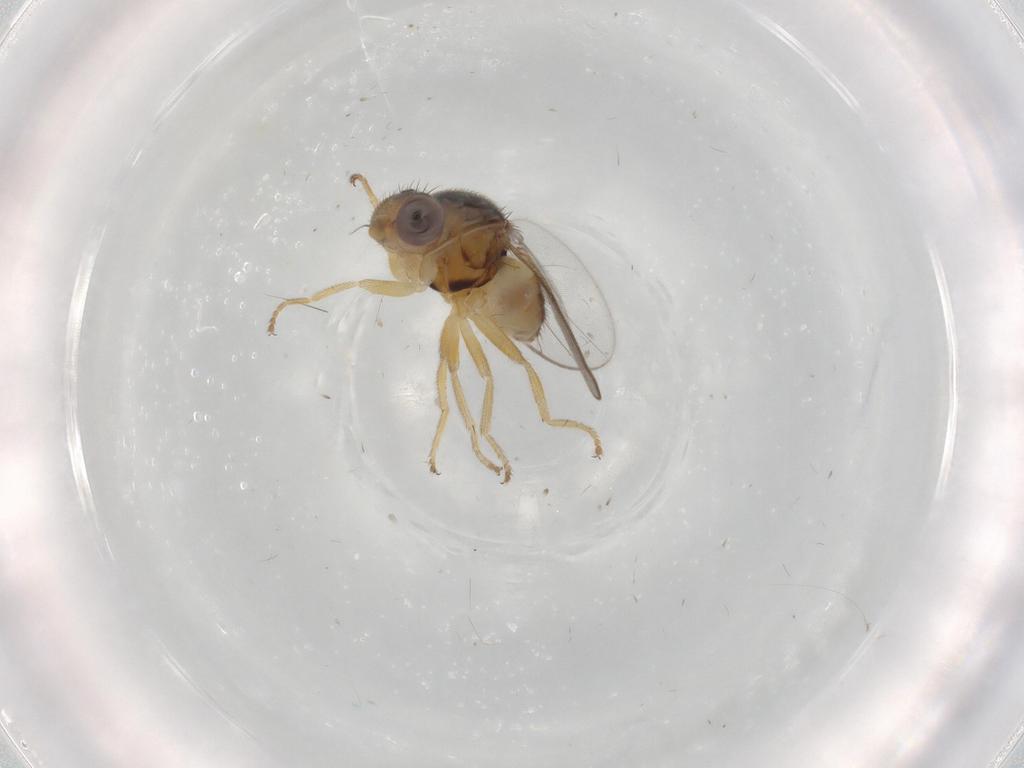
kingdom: Animalia
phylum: Arthropoda
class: Insecta
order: Diptera
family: Chloropidae
